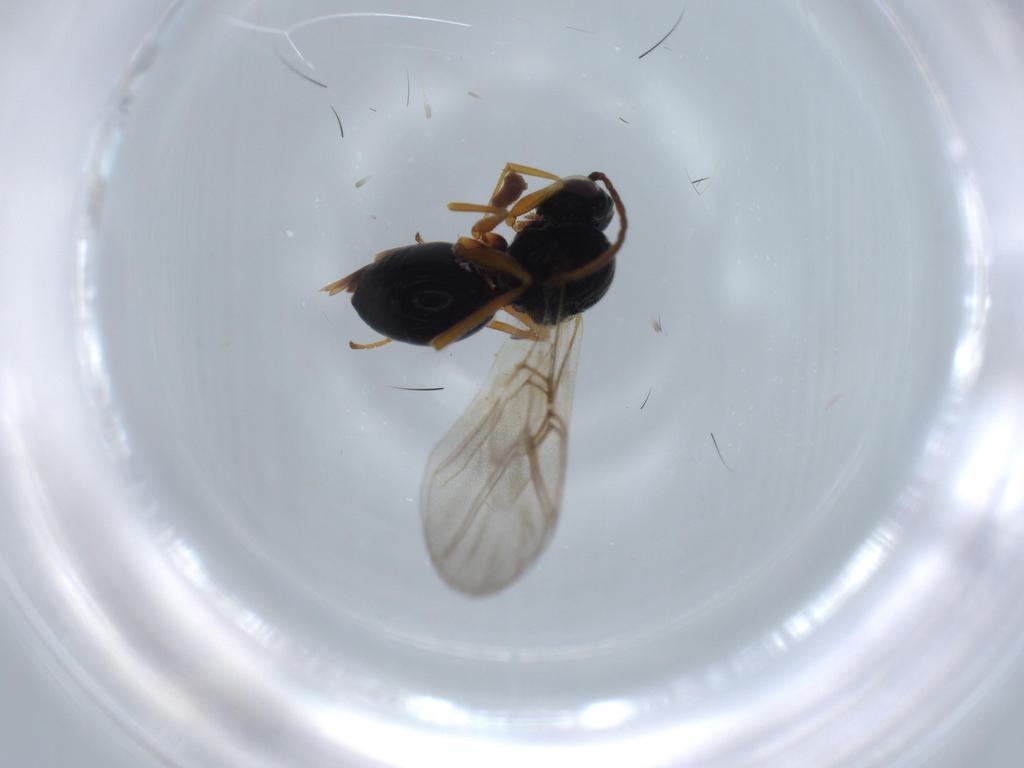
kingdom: Animalia
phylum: Arthropoda
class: Insecta
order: Hymenoptera
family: Cynipidae
